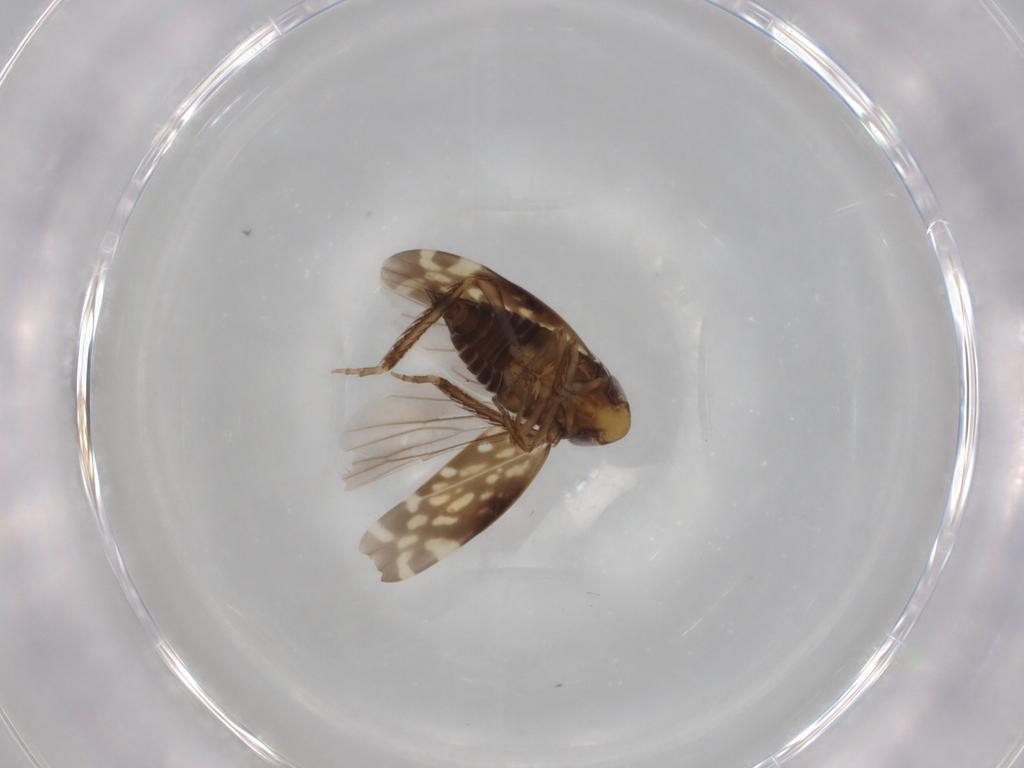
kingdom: Animalia
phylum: Arthropoda
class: Insecta
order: Hemiptera
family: Cicadellidae
